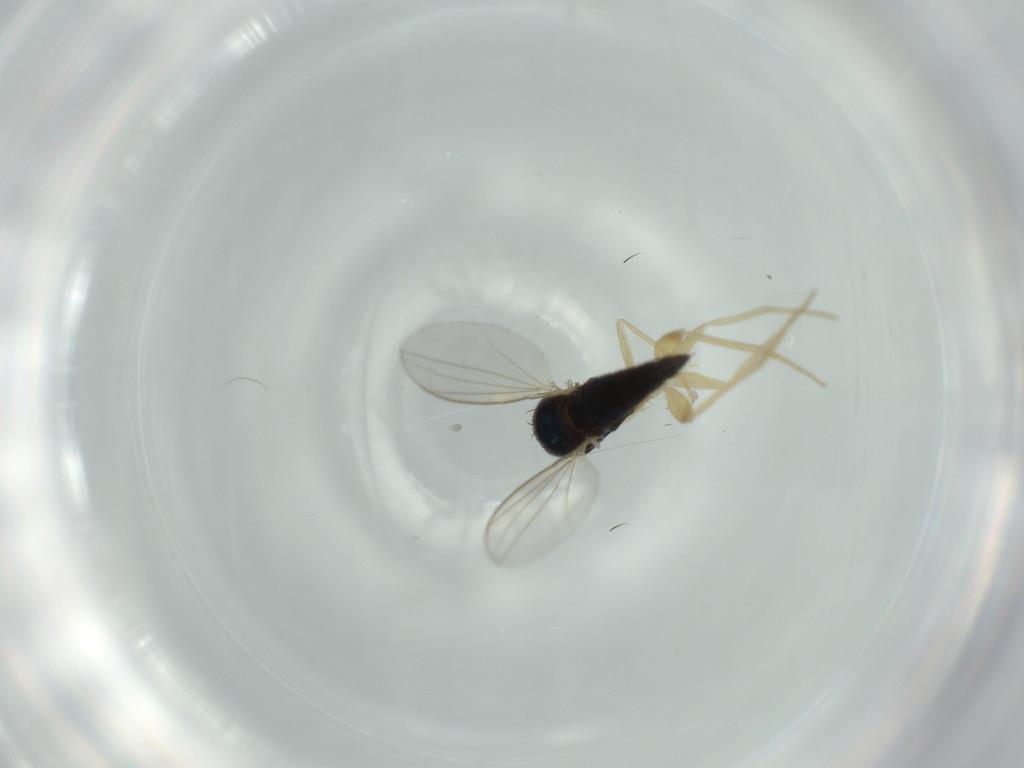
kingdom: Animalia
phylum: Arthropoda
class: Insecta
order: Diptera
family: Dolichopodidae
